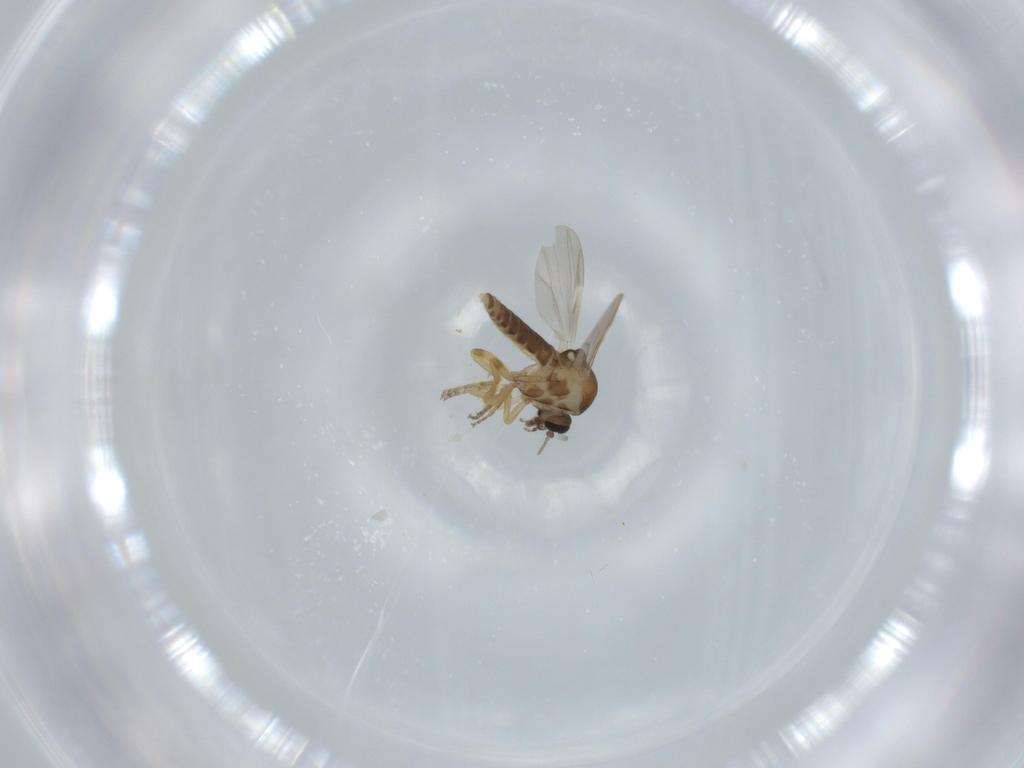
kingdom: Animalia
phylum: Arthropoda
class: Insecta
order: Diptera
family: Ceratopogonidae
